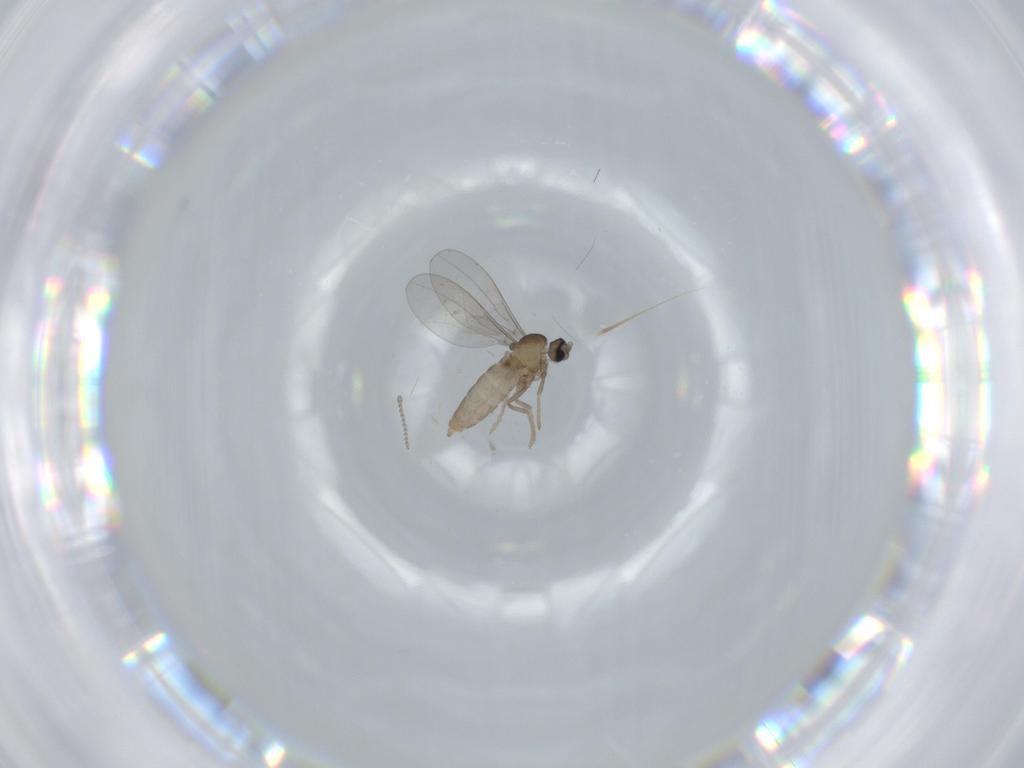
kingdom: Animalia
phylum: Arthropoda
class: Insecta
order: Diptera
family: Cecidomyiidae
